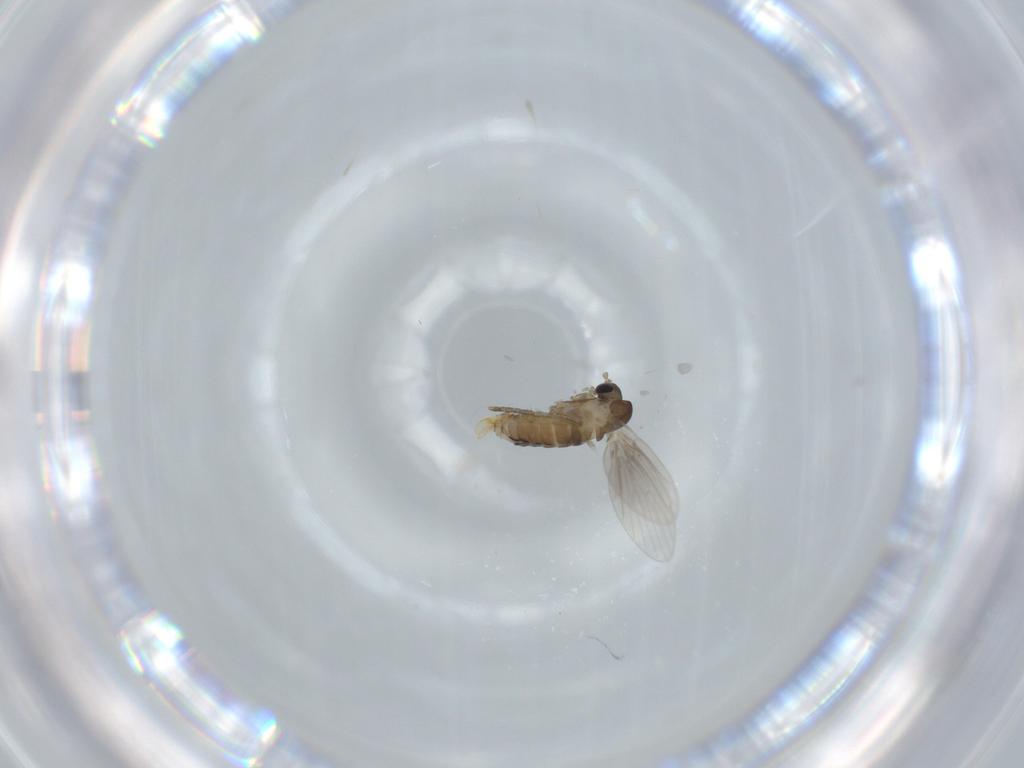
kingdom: Animalia
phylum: Arthropoda
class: Insecta
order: Diptera
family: Psychodidae
